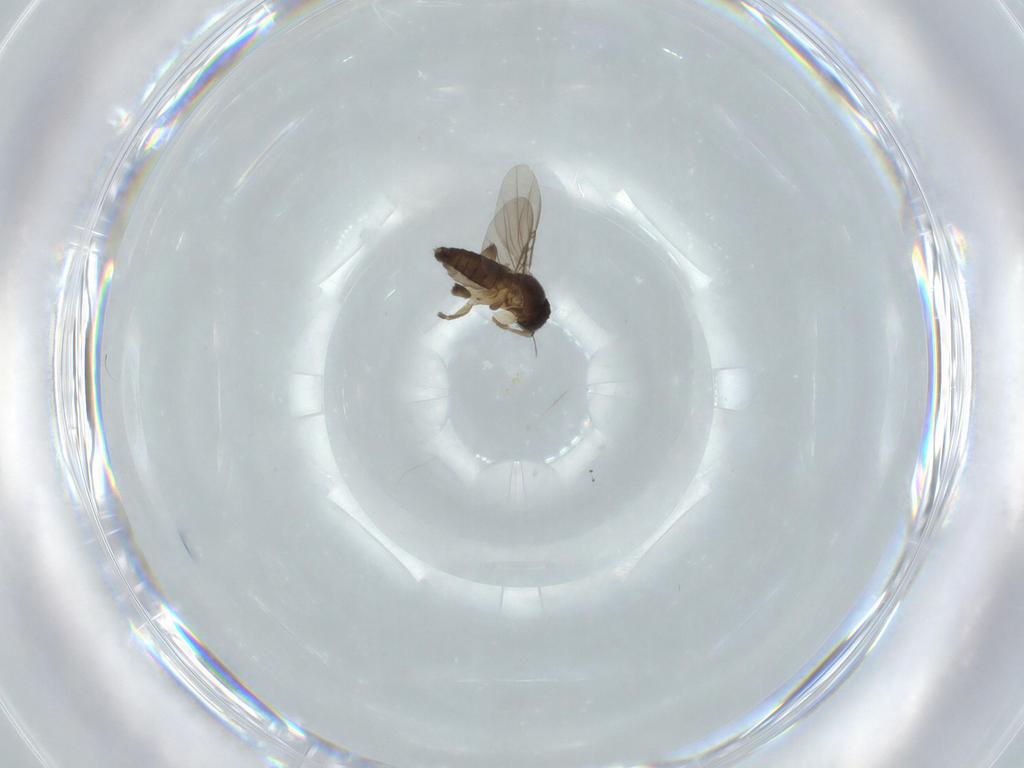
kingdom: Animalia
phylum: Arthropoda
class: Insecta
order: Diptera
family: Phoridae
